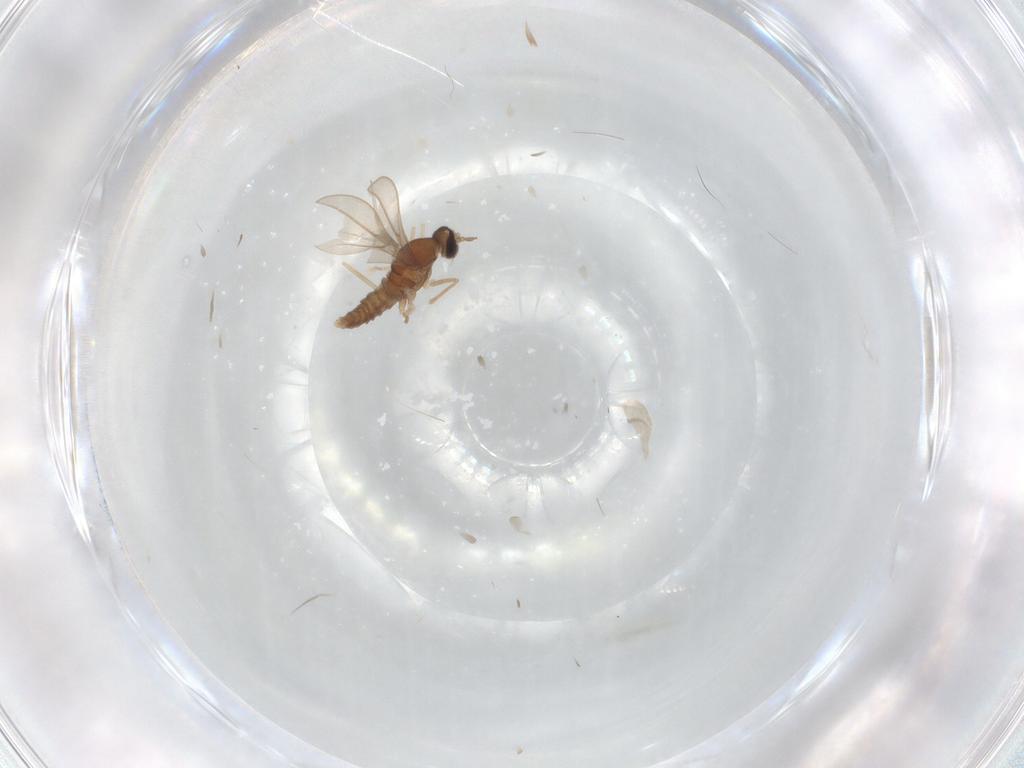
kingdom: Animalia
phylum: Arthropoda
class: Insecta
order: Diptera
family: Cecidomyiidae
